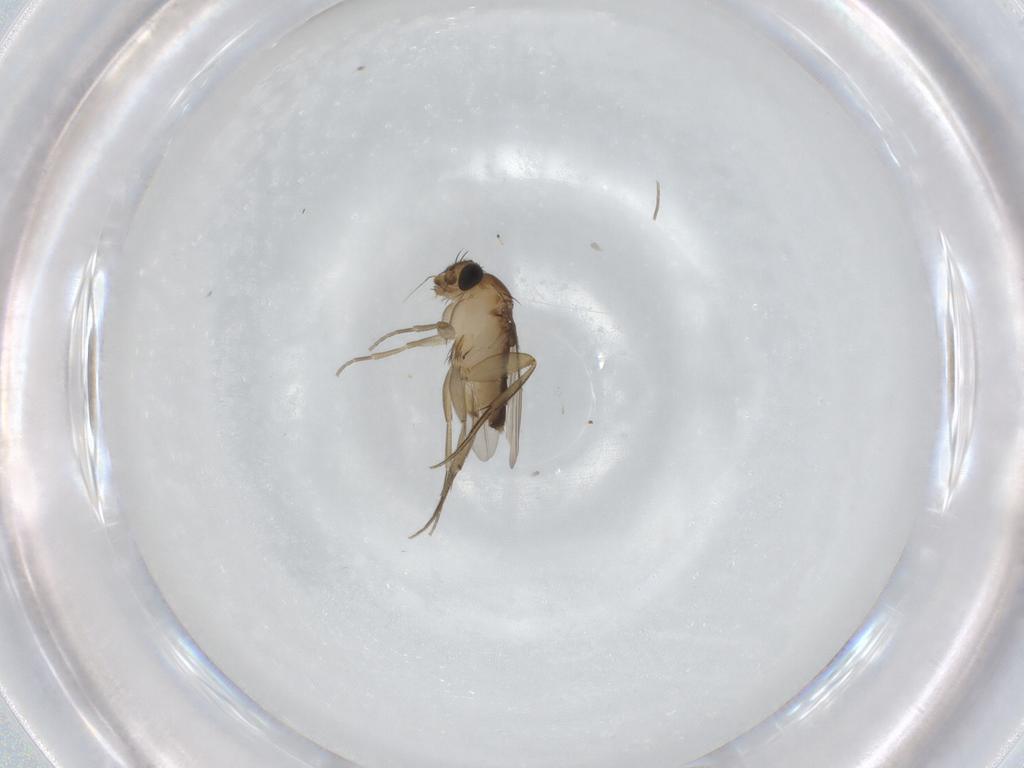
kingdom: Animalia
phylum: Arthropoda
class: Insecta
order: Diptera
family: Phoridae
